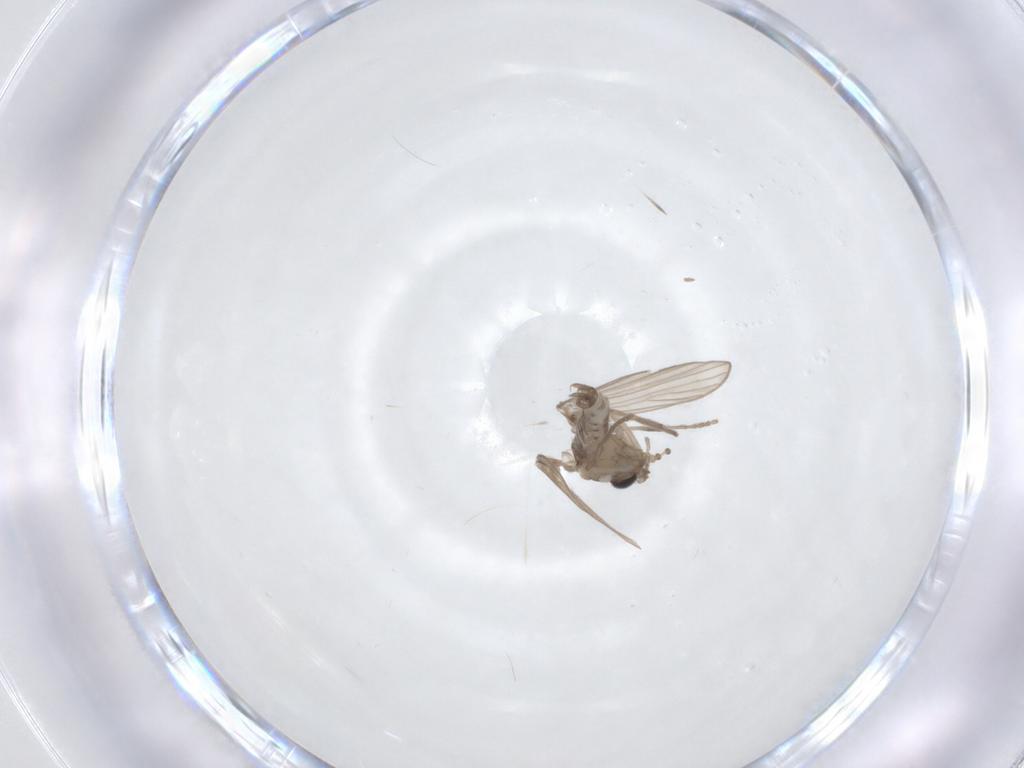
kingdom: Animalia
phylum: Arthropoda
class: Insecta
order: Diptera
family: Psychodidae
